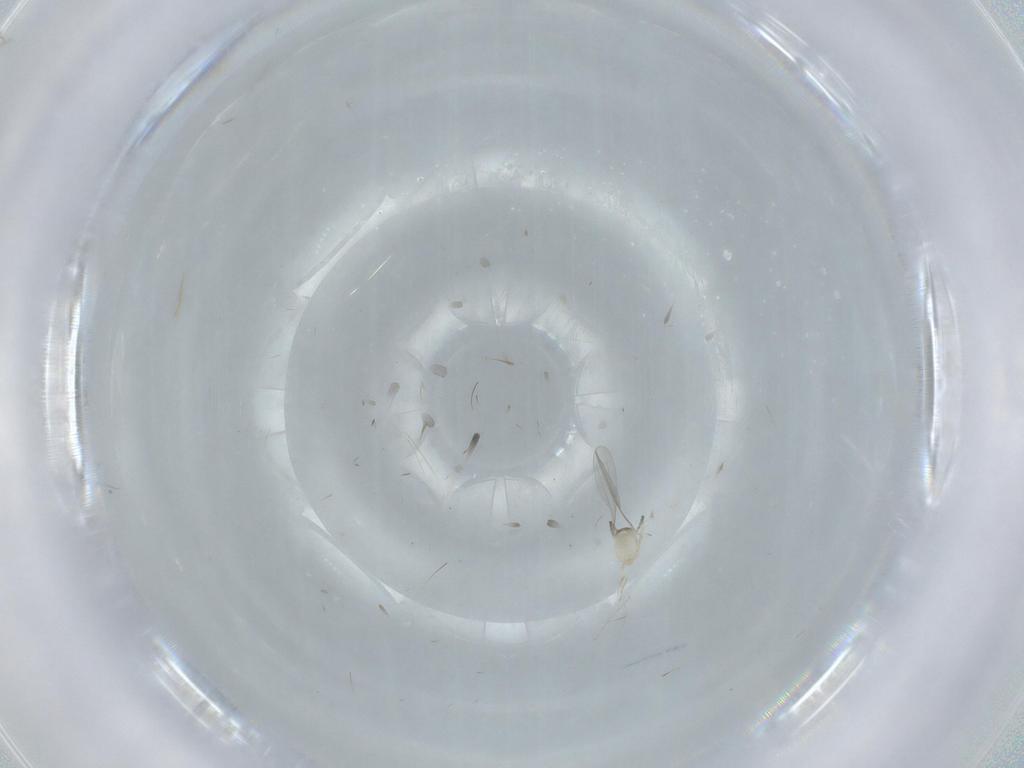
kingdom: Animalia
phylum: Arthropoda
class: Insecta
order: Diptera
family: Cecidomyiidae
